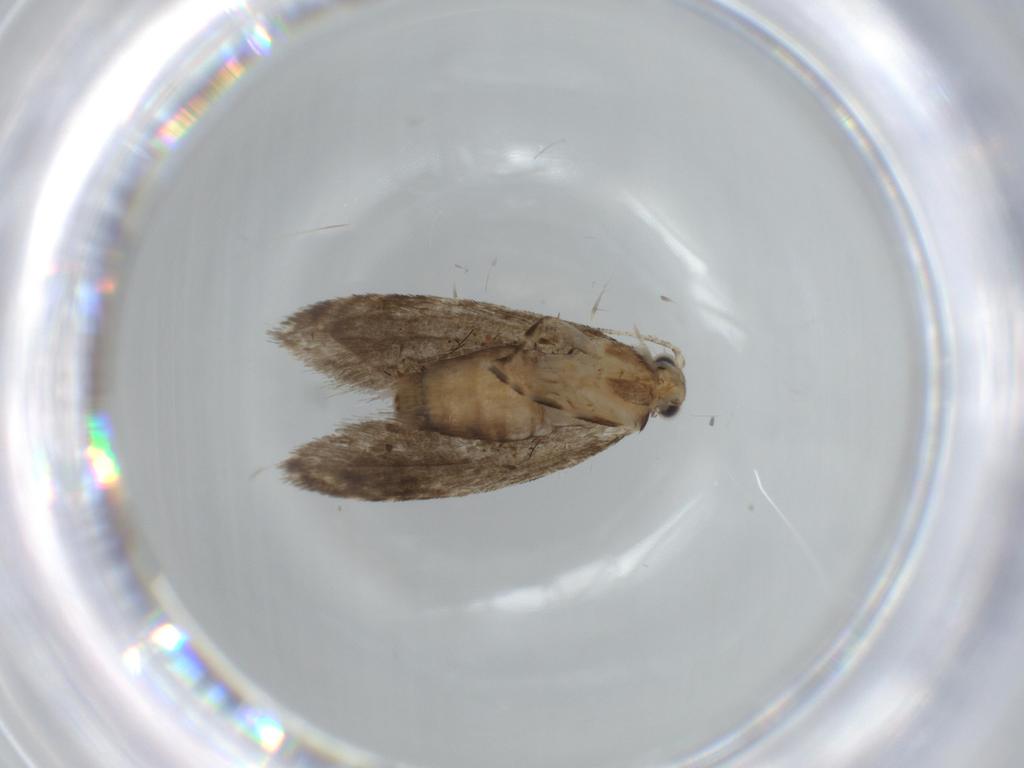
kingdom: Animalia
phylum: Arthropoda
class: Insecta
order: Lepidoptera
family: Tineidae
